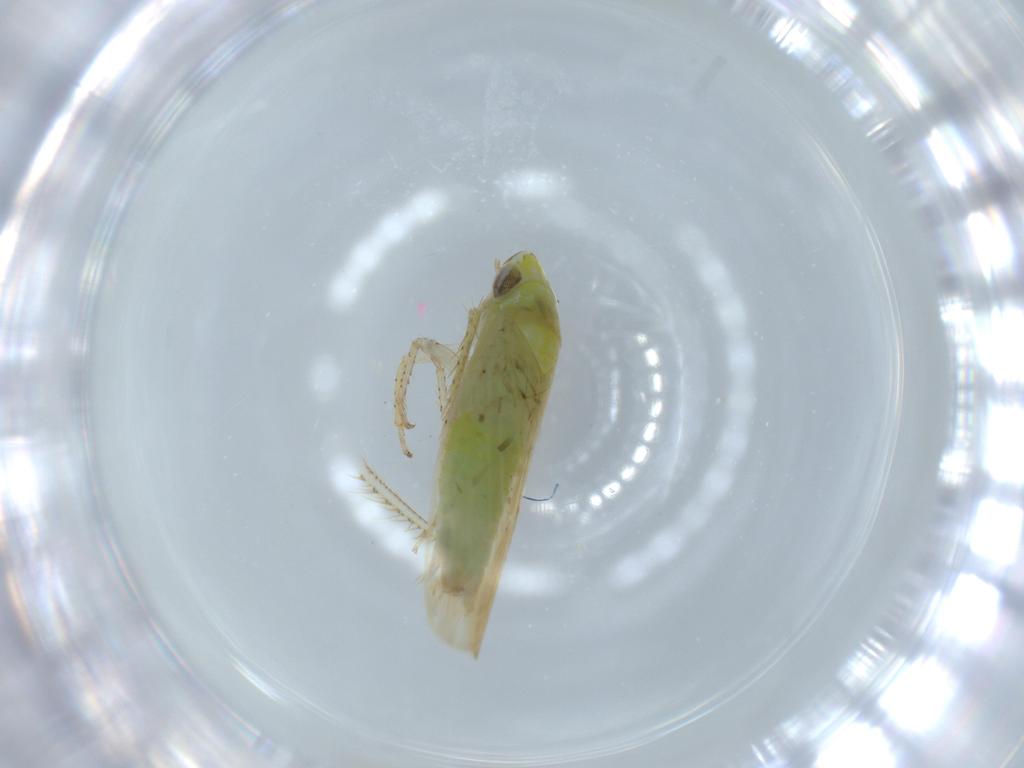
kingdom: Animalia
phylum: Arthropoda
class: Insecta
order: Hemiptera
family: Cicadellidae
